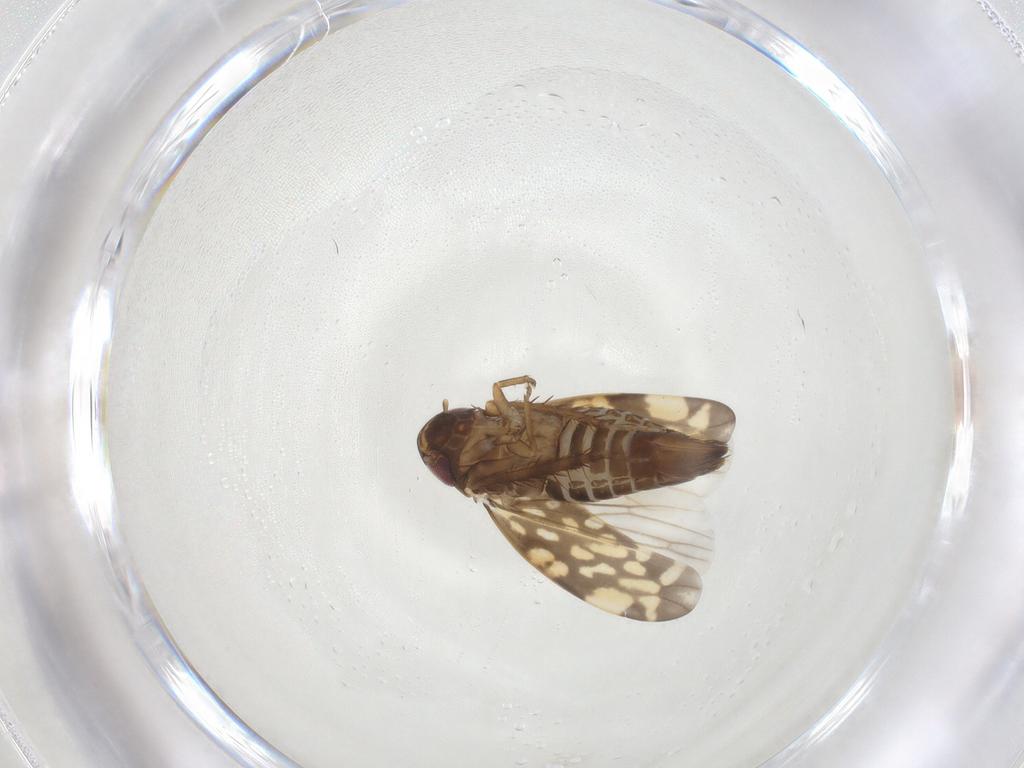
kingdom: Animalia
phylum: Arthropoda
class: Insecta
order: Hemiptera
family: Cicadellidae
